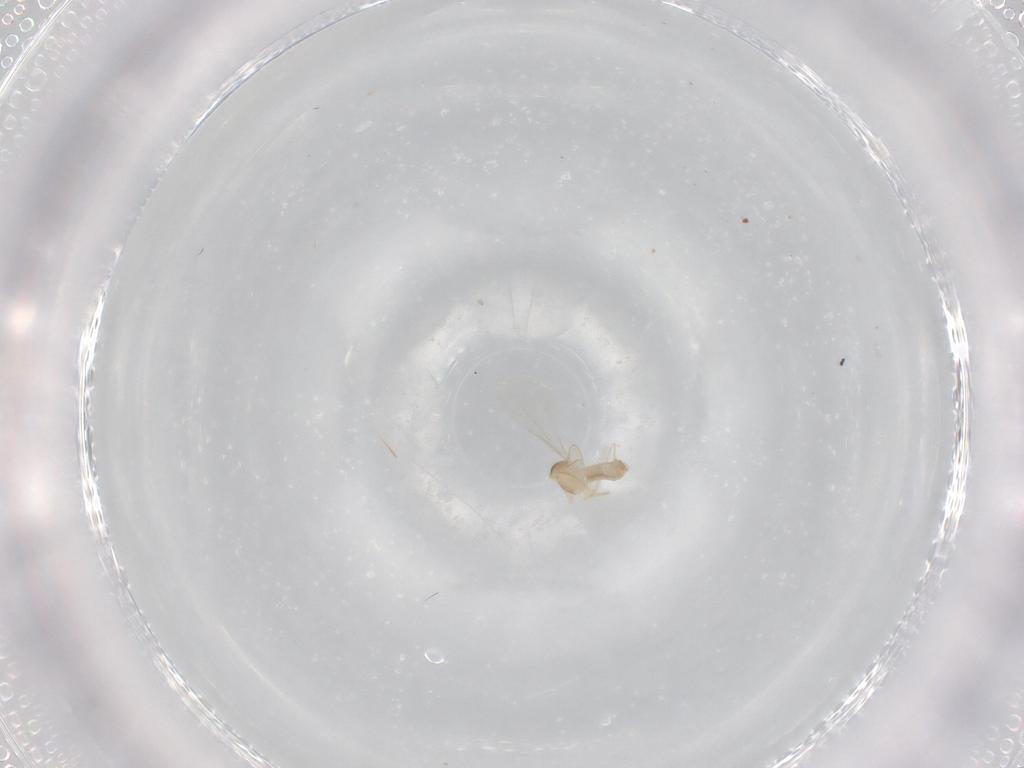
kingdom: Animalia
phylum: Arthropoda
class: Insecta
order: Diptera
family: Cecidomyiidae
